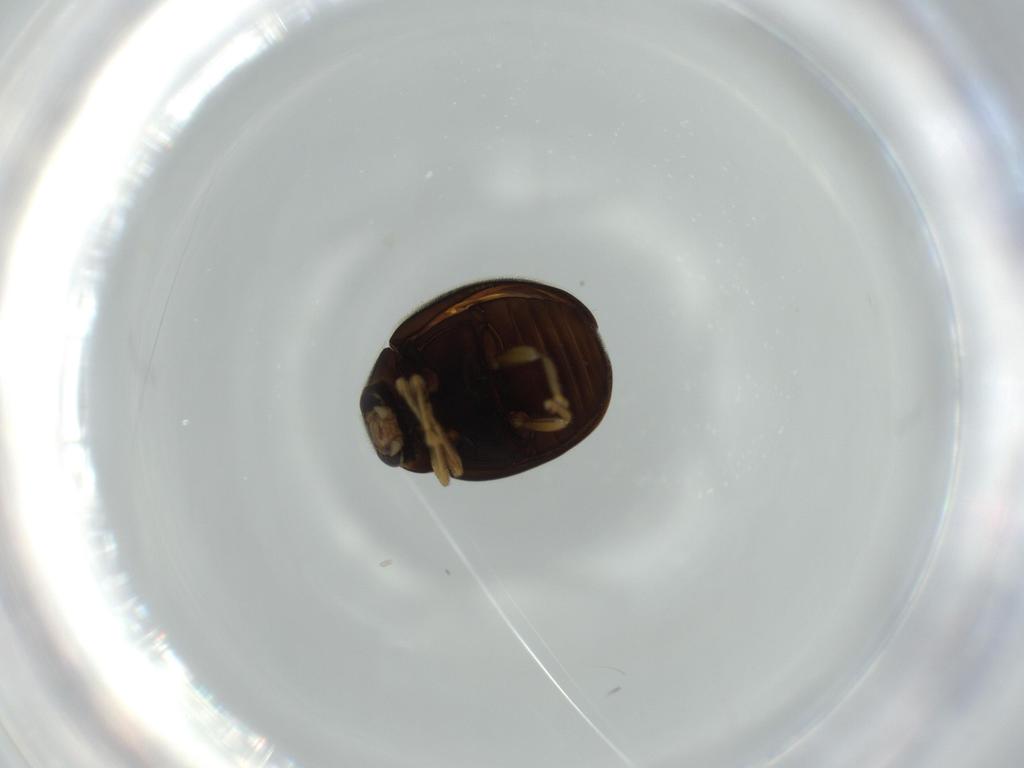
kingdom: Animalia
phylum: Arthropoda
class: Insecta
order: Coleoptera
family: Coccinellidae
